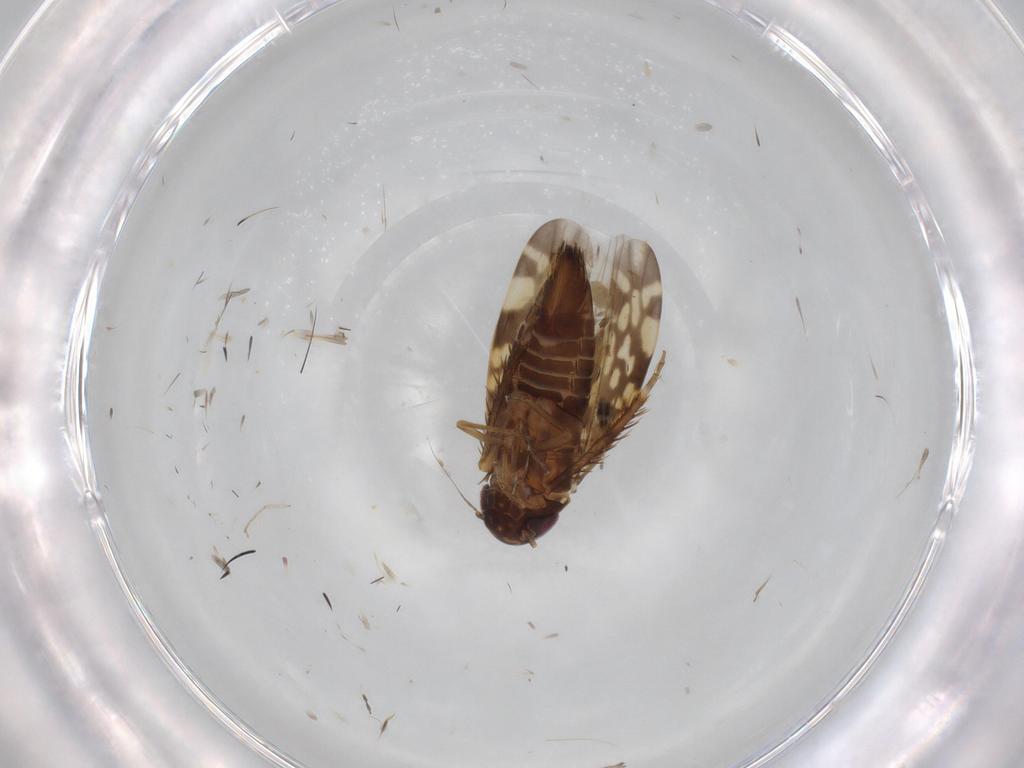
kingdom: Animalia
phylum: Arthropoda
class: Insecta
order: Hemiptera
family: Cicadellidae
